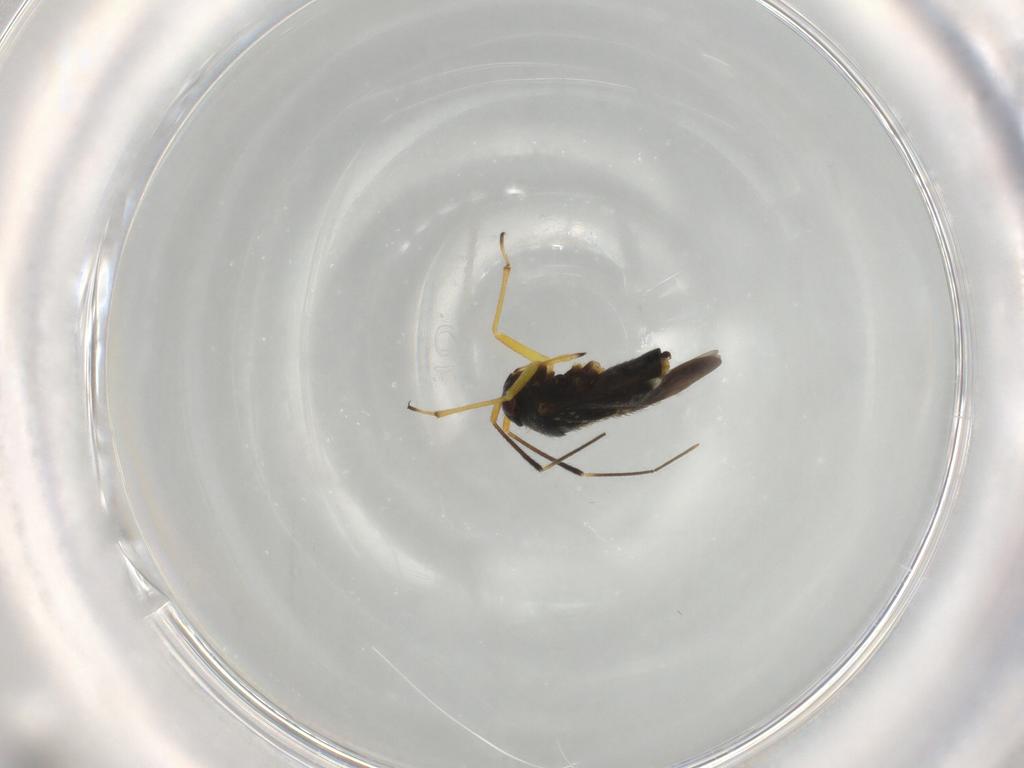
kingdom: Animalia
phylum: Arthropoda
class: Insecta
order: Hemiptera
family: Miridae
